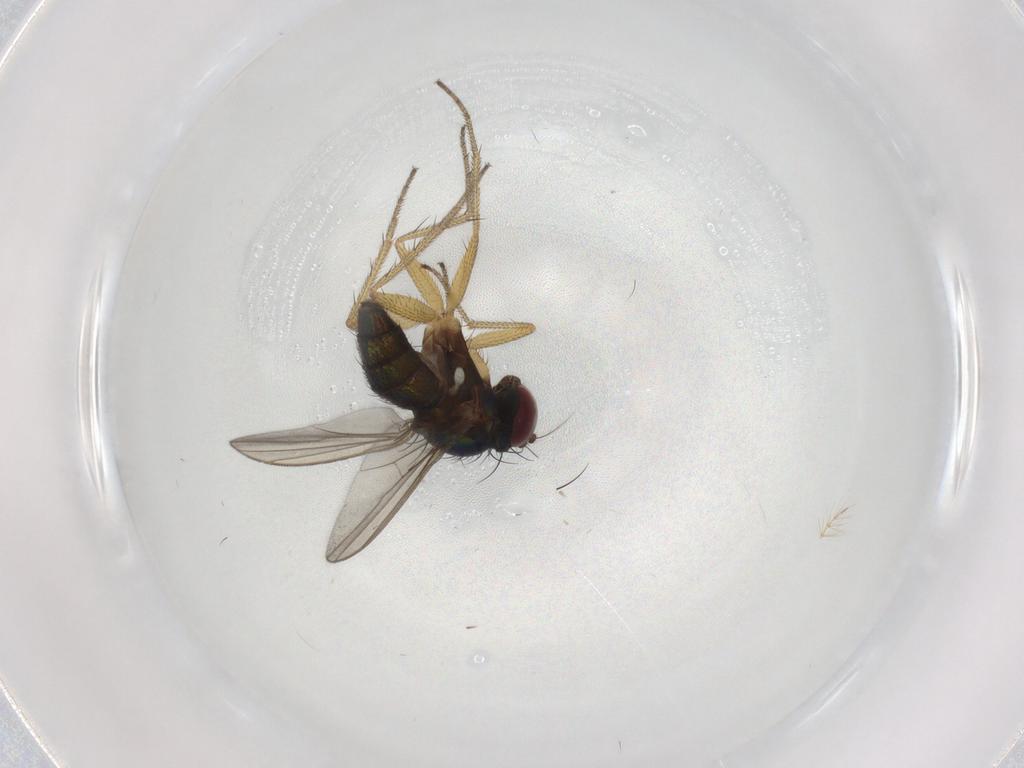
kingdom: Animalia
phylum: Arthropoda
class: Insecta
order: Diptera
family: Dolichopodidae
